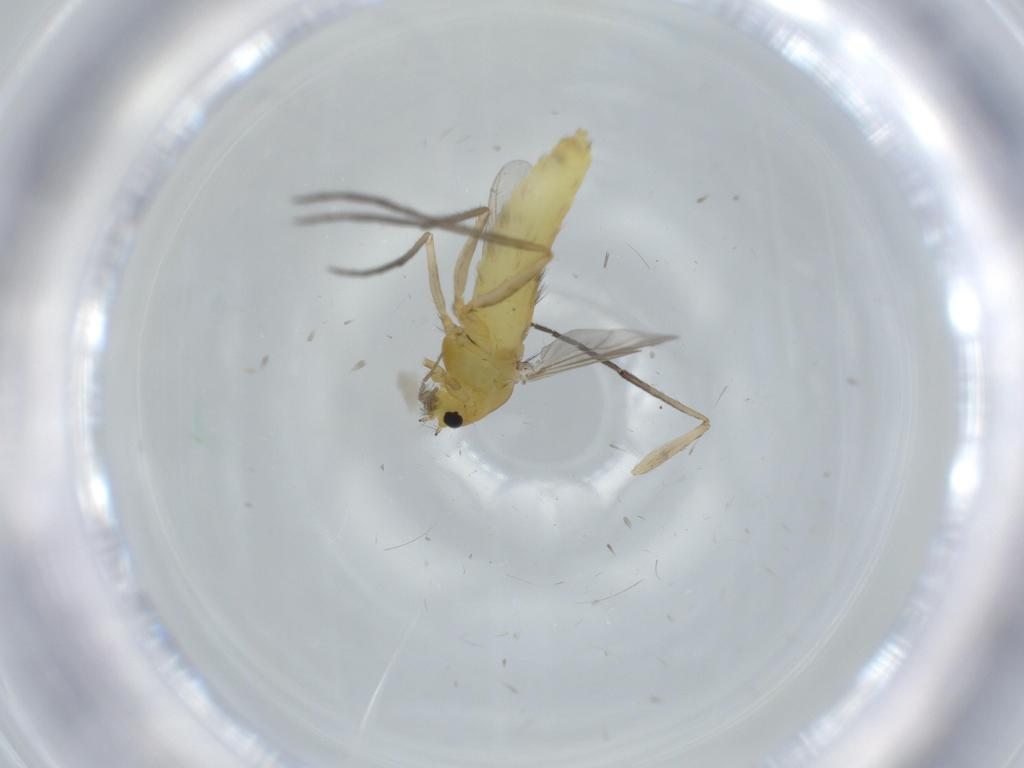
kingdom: Animalia
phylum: Arthropoda
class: Insecta
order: Diptera
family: Chironomidae
